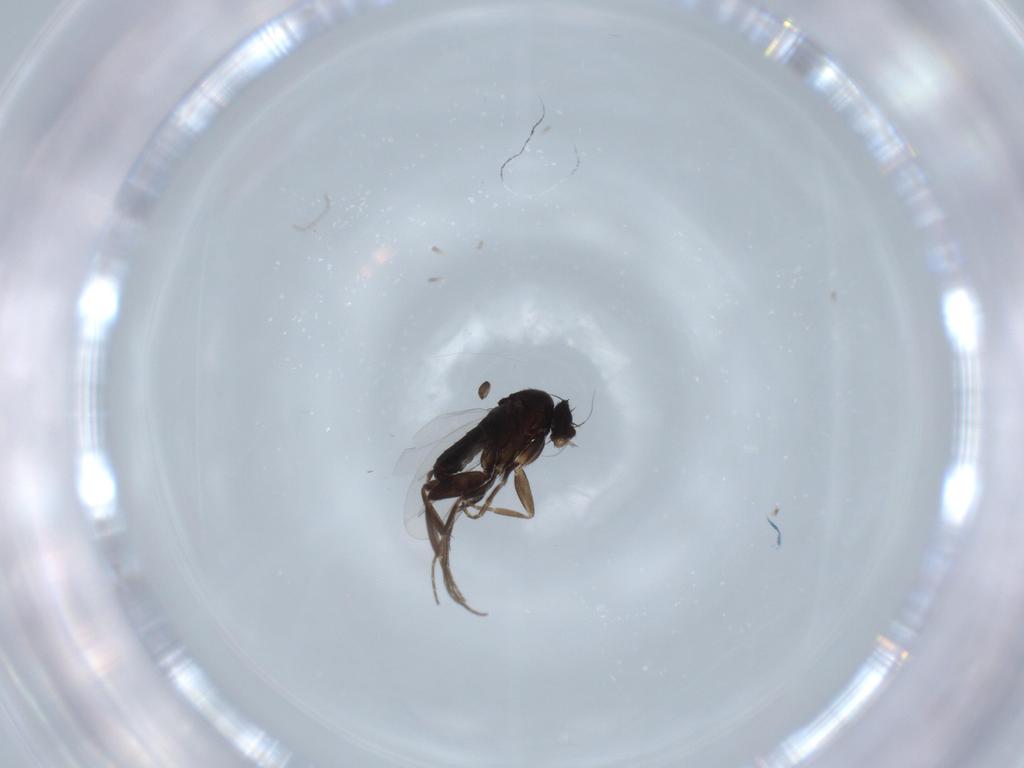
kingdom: Animalia
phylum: Arthropoda
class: Insecta
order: Diptera
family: Phoridae
